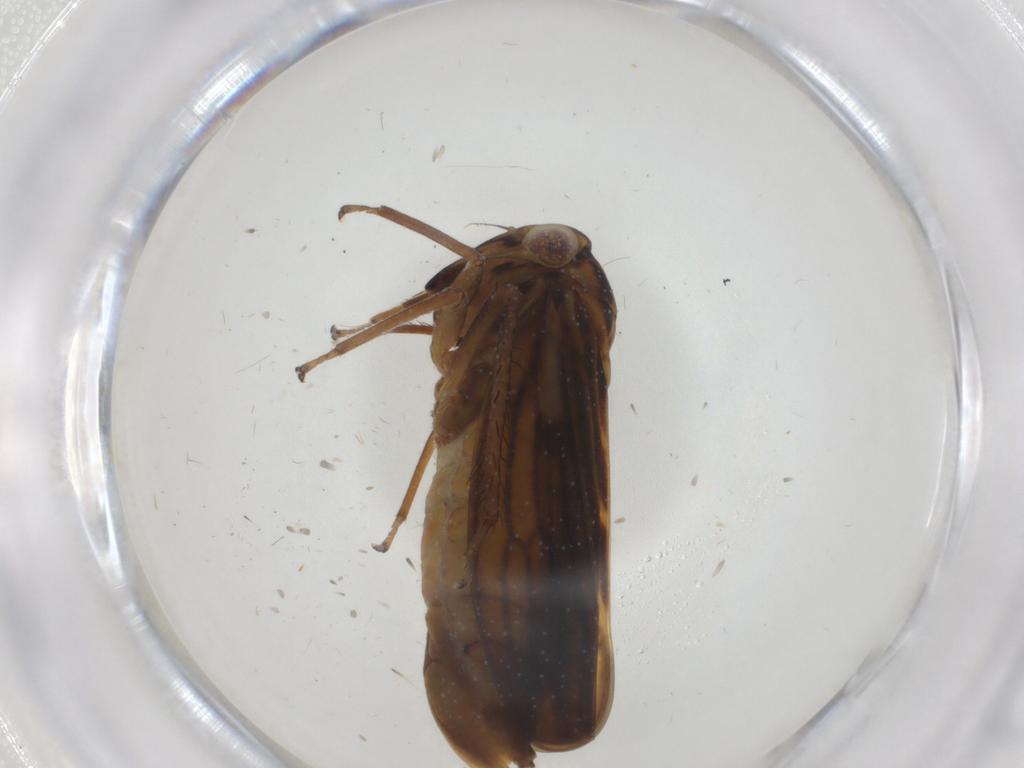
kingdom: Animalia
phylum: Arthropoda
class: Insecta
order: Hemiptera
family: Cicadellidae
